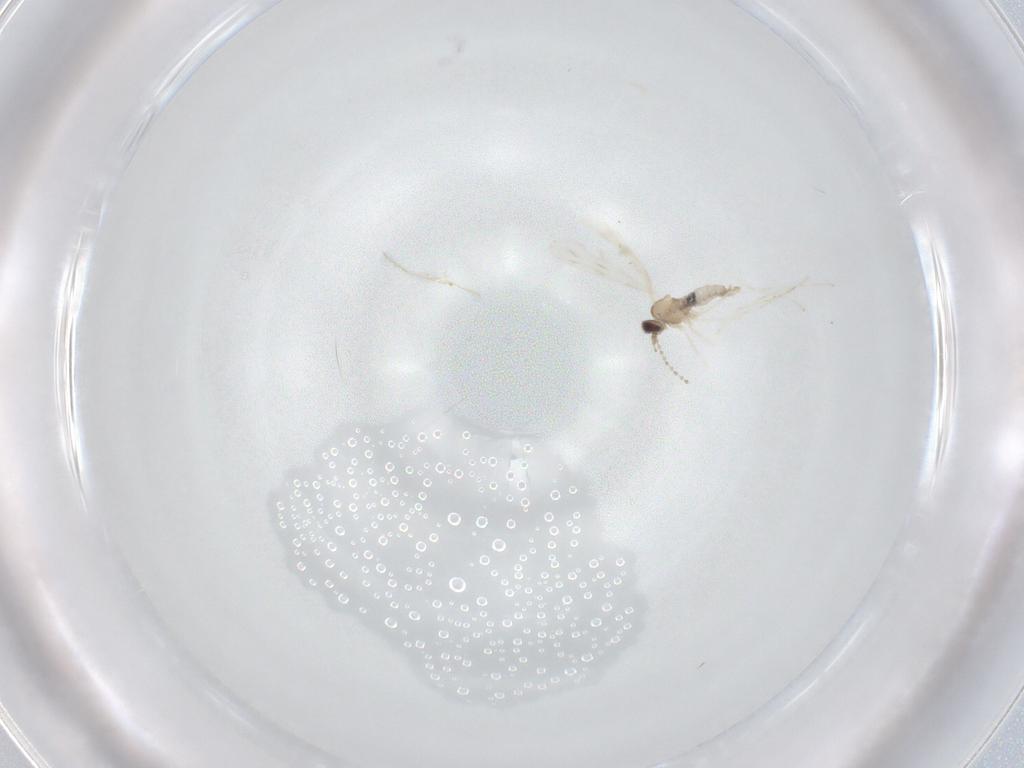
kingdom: Animalia
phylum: Arthropoda
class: Insecta
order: Diptera
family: Cecidomyiidae
